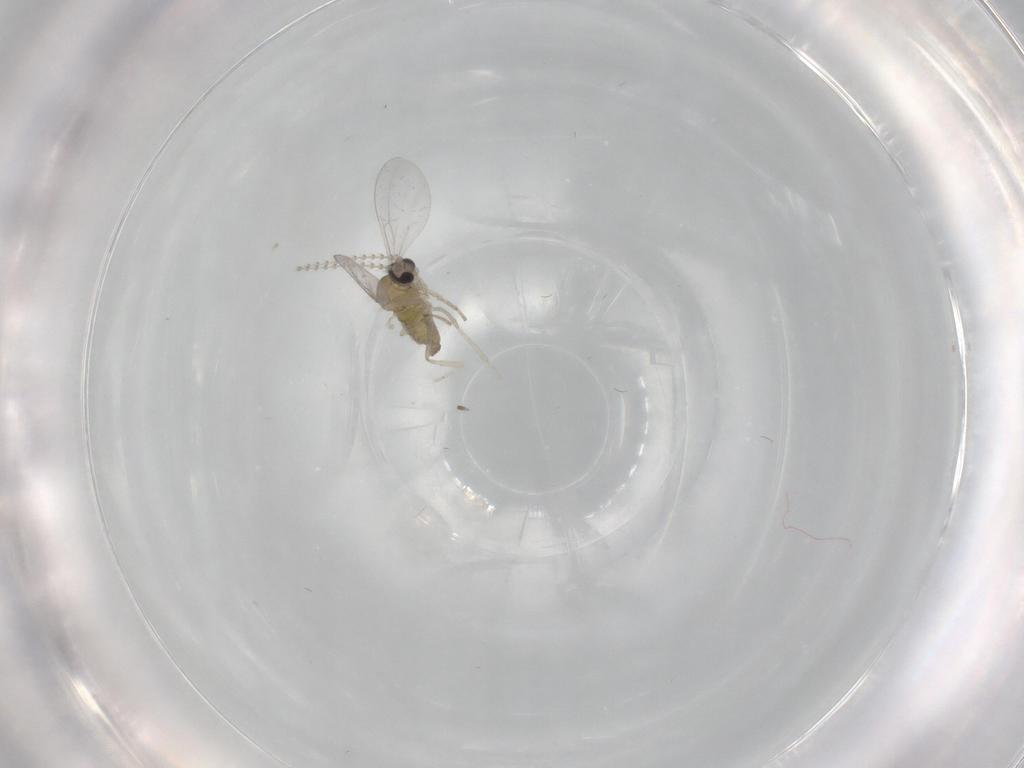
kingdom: Animalia
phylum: Arthropoda
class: Insecta
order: Diptera
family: Cecidomyiidae
